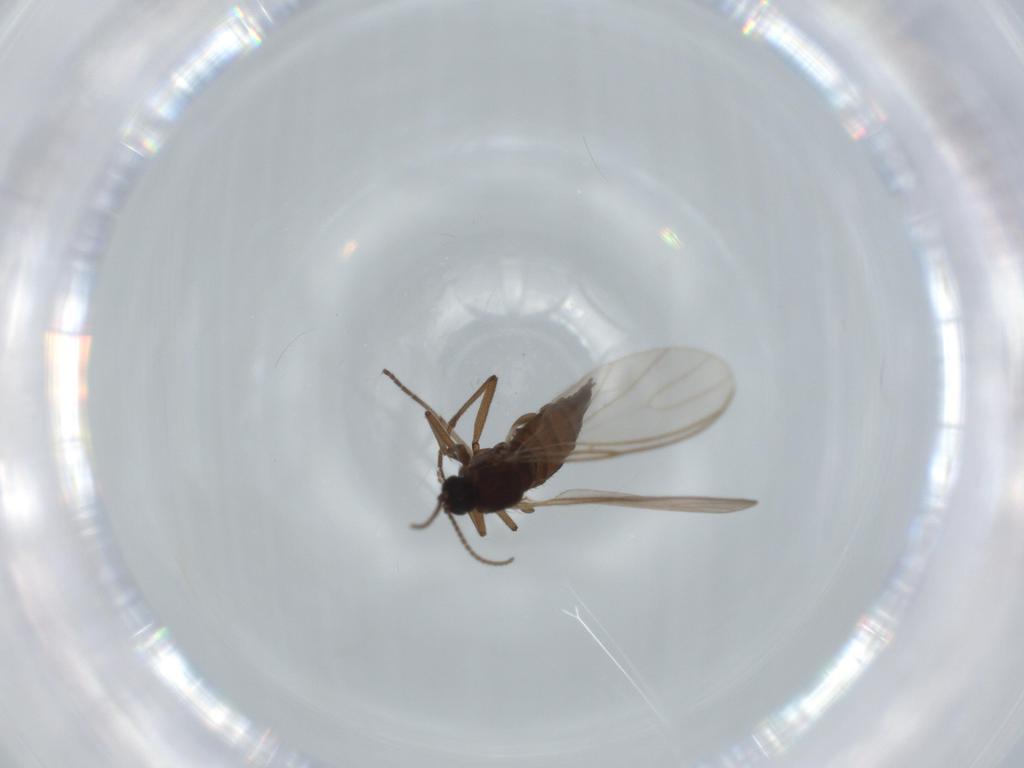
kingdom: Animalia
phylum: Arthropoda
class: Insecta
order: Diptera
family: Sciaridae
